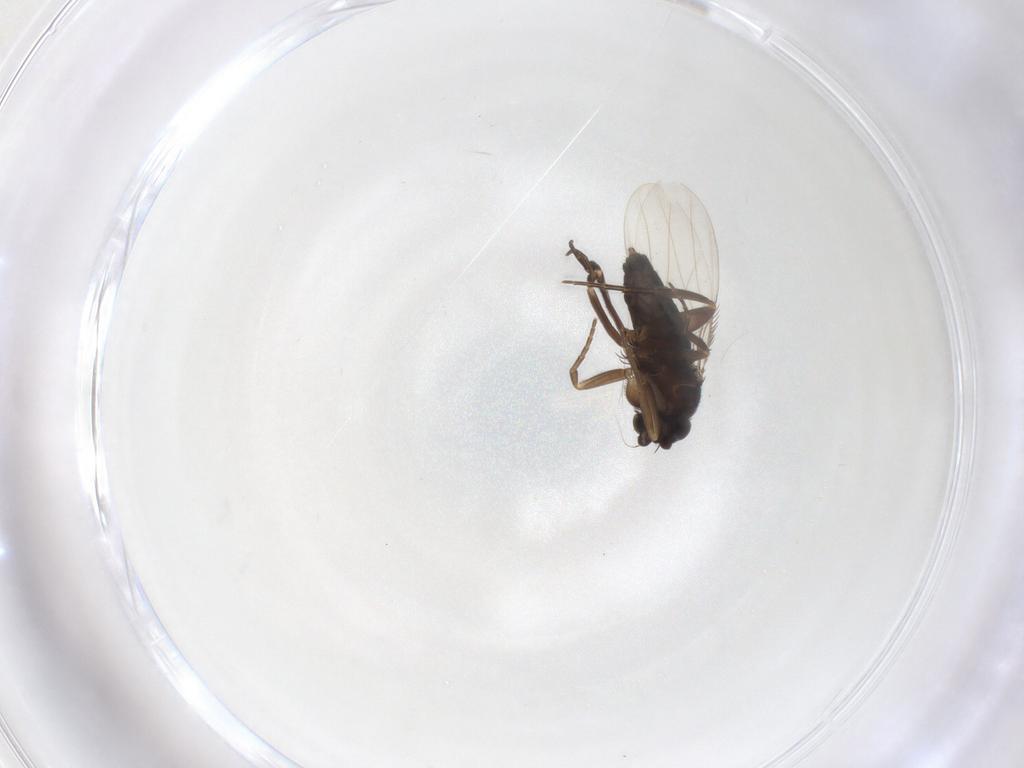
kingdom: Animalia
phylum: Arthropoda
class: Insecta
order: Diptera
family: Phoridae
